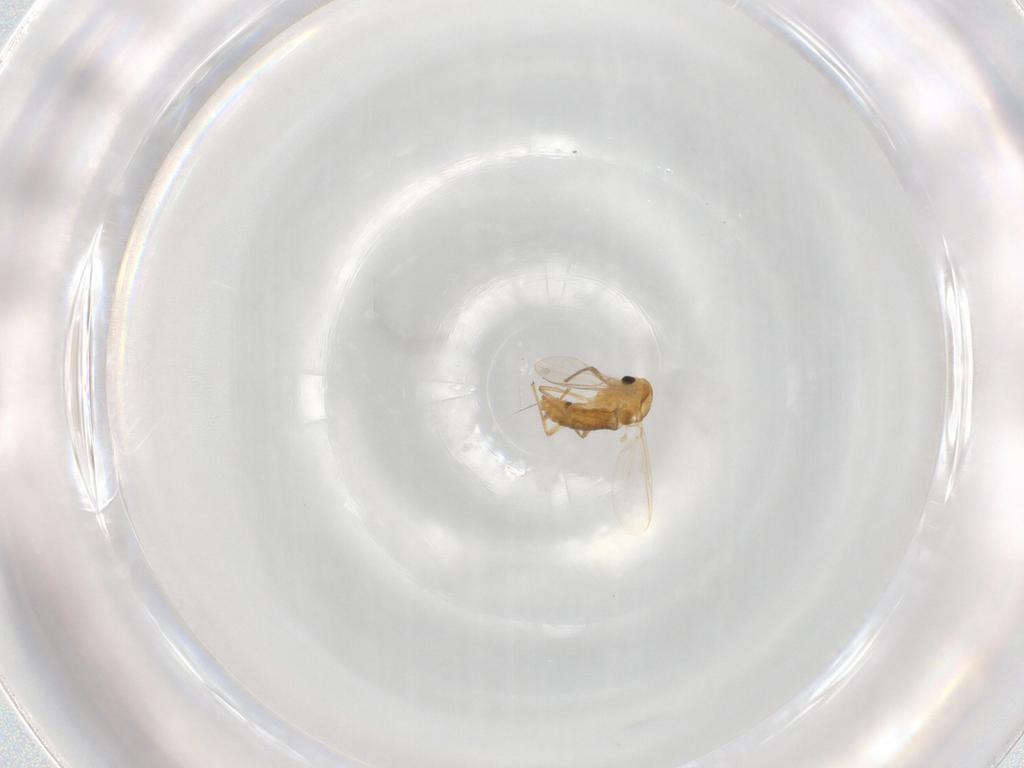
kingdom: Animalia
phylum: Arthropoda
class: Insecta
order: Diptera
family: Chironomidae
